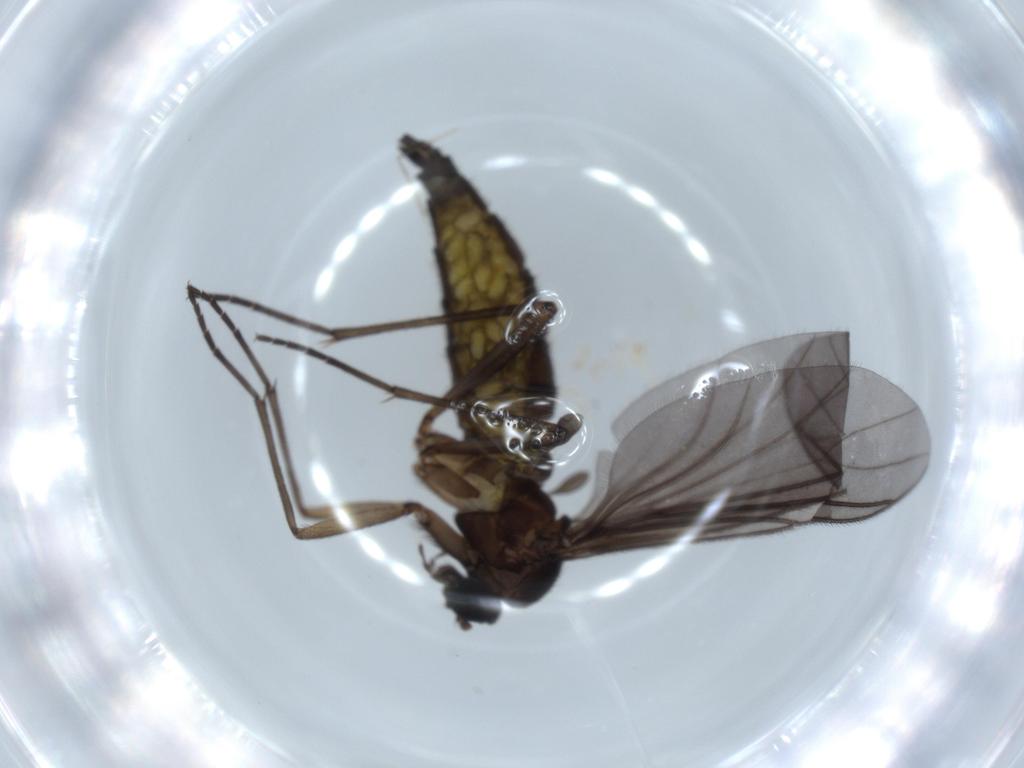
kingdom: Animalia
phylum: Arthropoda
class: Insecta
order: Diptera
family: Sciaridae
